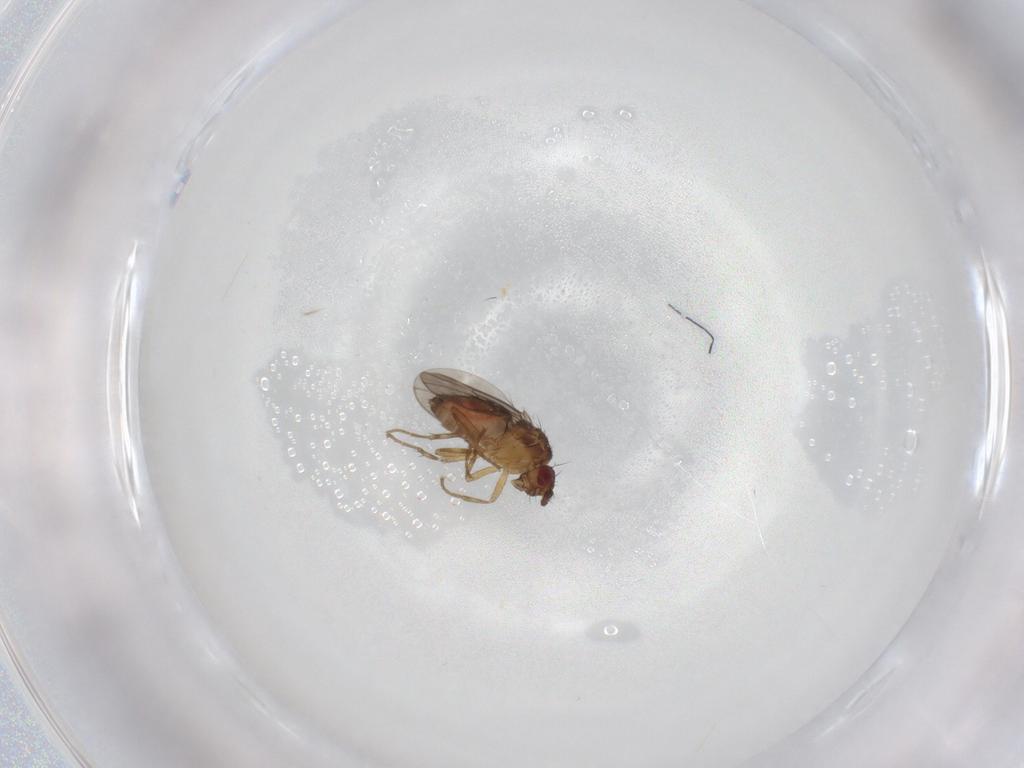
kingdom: Animalia
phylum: Arthropoda
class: Insecta
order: Diptera
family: Sphaeroceridae
